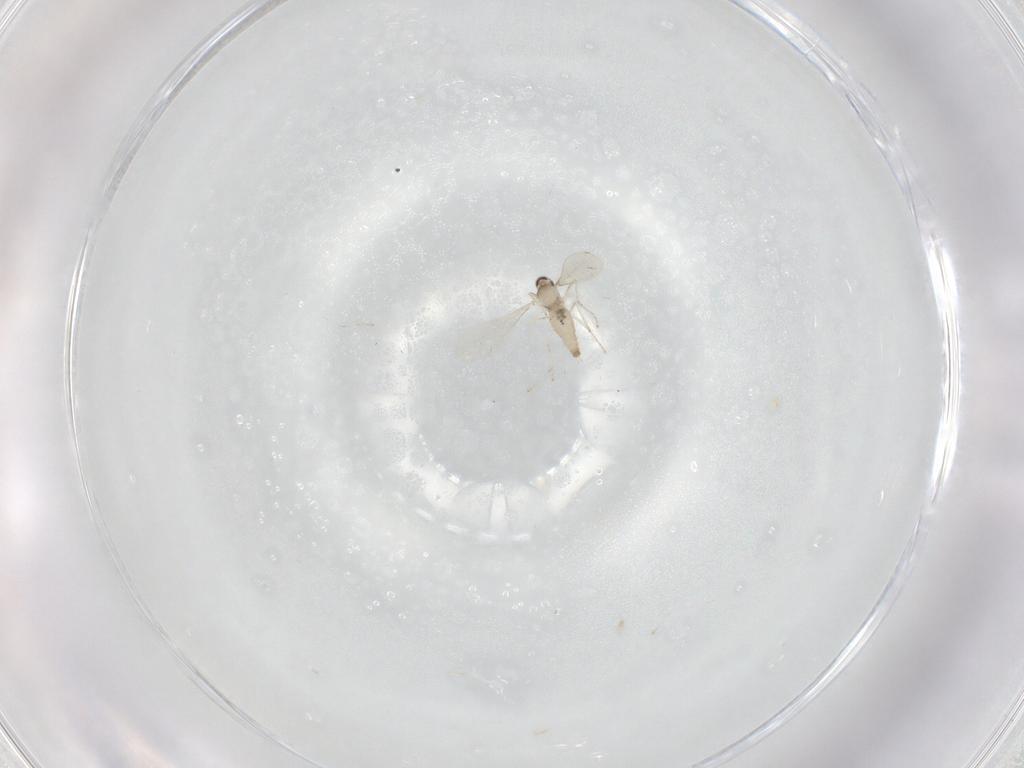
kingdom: Animalia
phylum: Arthropoda
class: Insecta
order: Diptera
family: Cecidomyiidae
